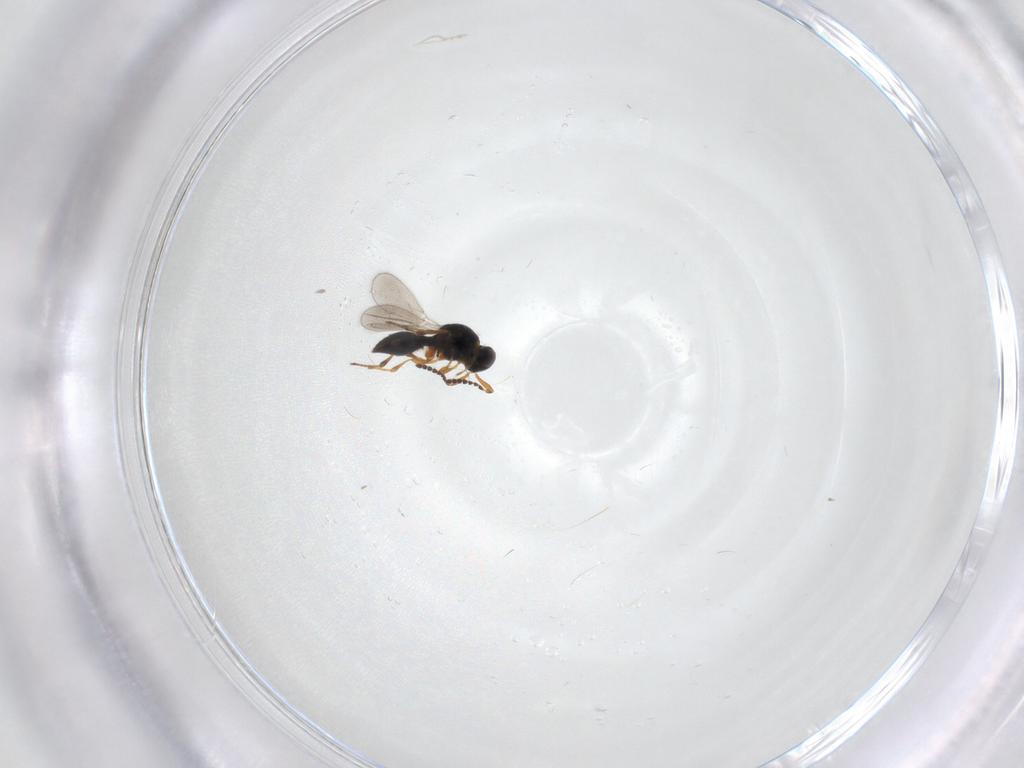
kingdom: Animalia
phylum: Arthropoda
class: Insecta
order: Hymenoptera
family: Platygastridae
